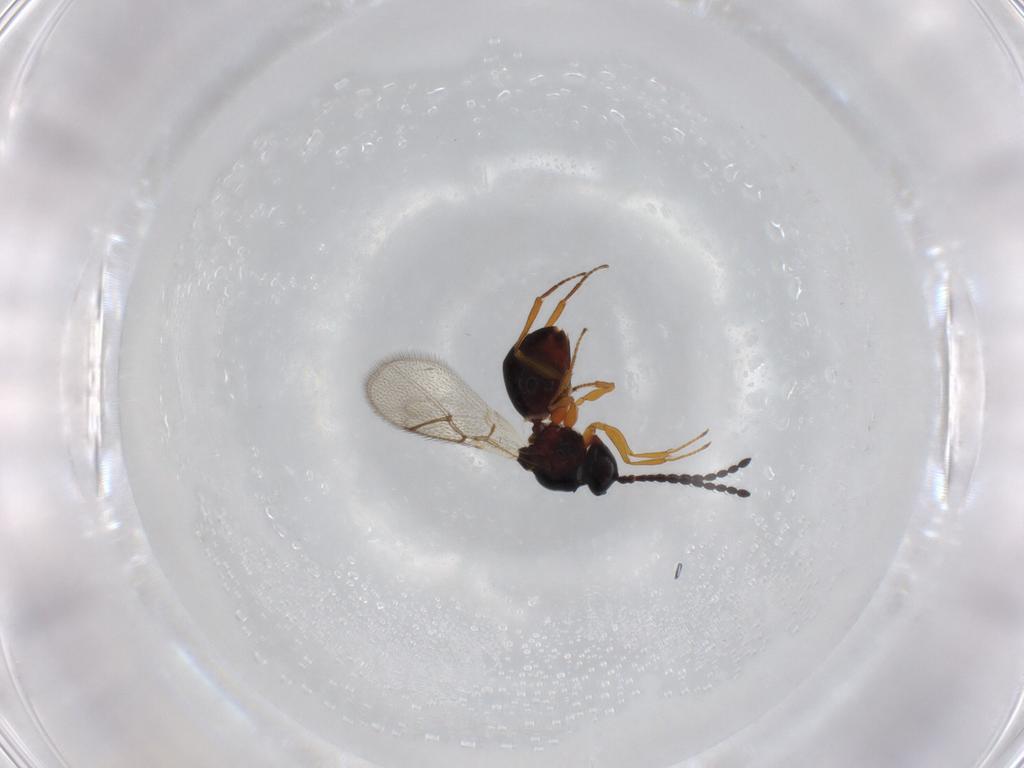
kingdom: Animalia
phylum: Arthropoda
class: Insecta
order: Hymenoptera
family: Figitidae
